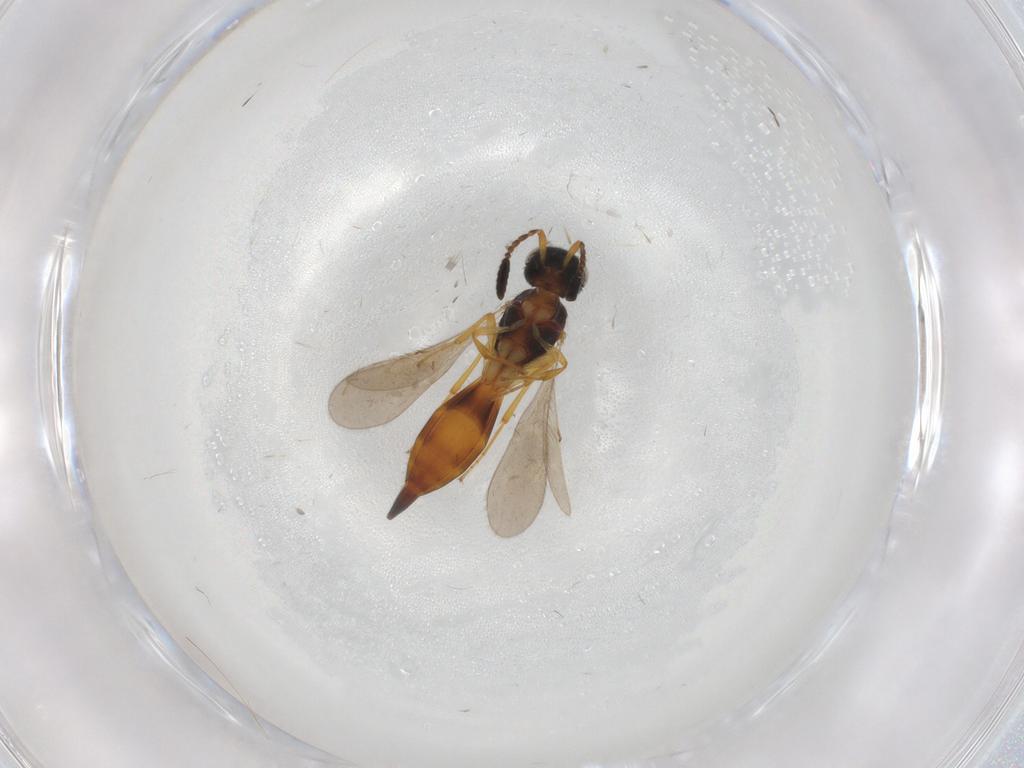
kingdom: Animalia
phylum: Arthropoda
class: Insecta
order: Hymenoptera
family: Scelionidae
